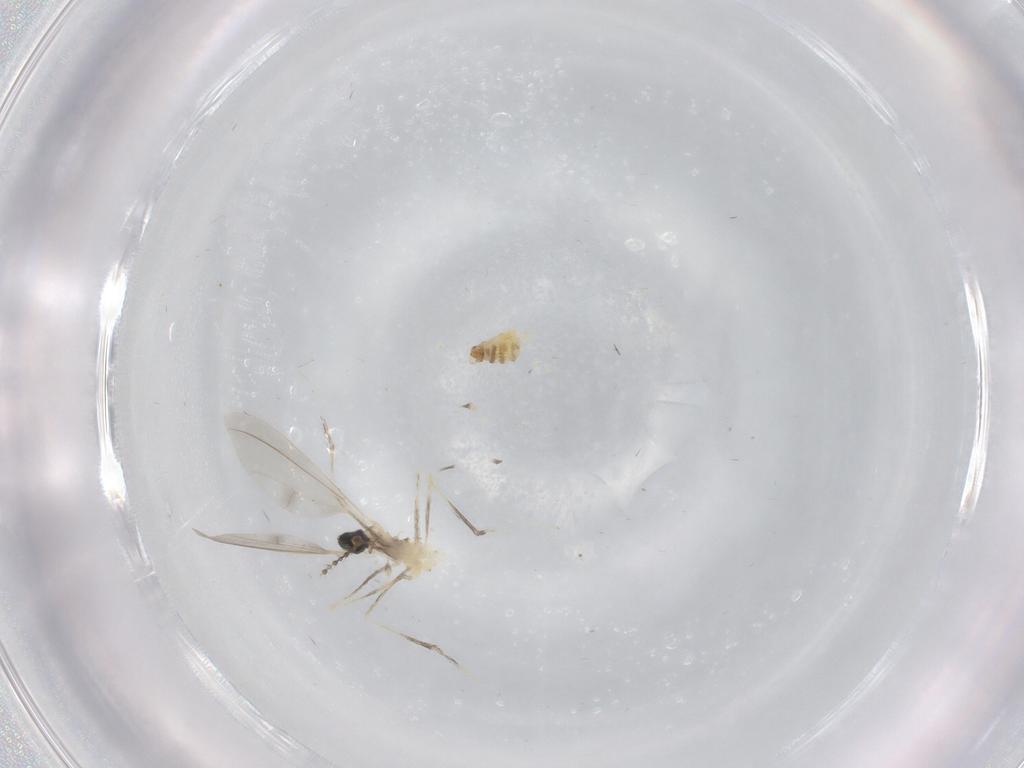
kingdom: Animalia
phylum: Arthropoda
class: Insecta
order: Diptera
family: Cecidomyiidae
